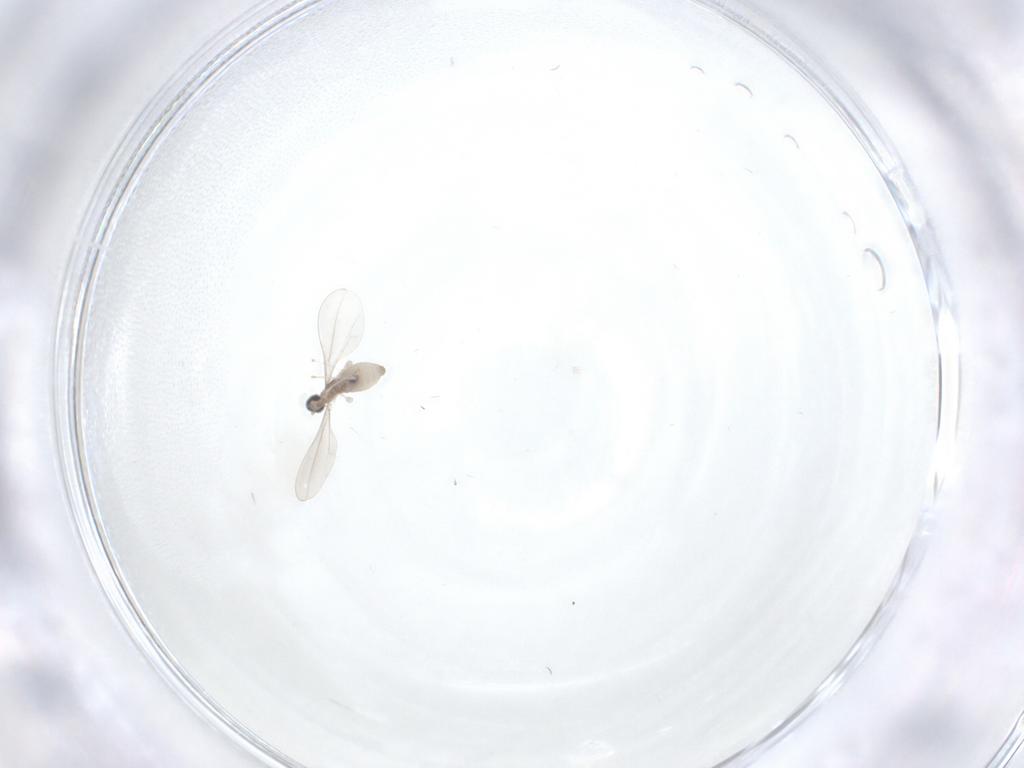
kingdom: Animalia
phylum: Arthropoda
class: Insecta
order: Diptera
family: Cecidomyiidae
